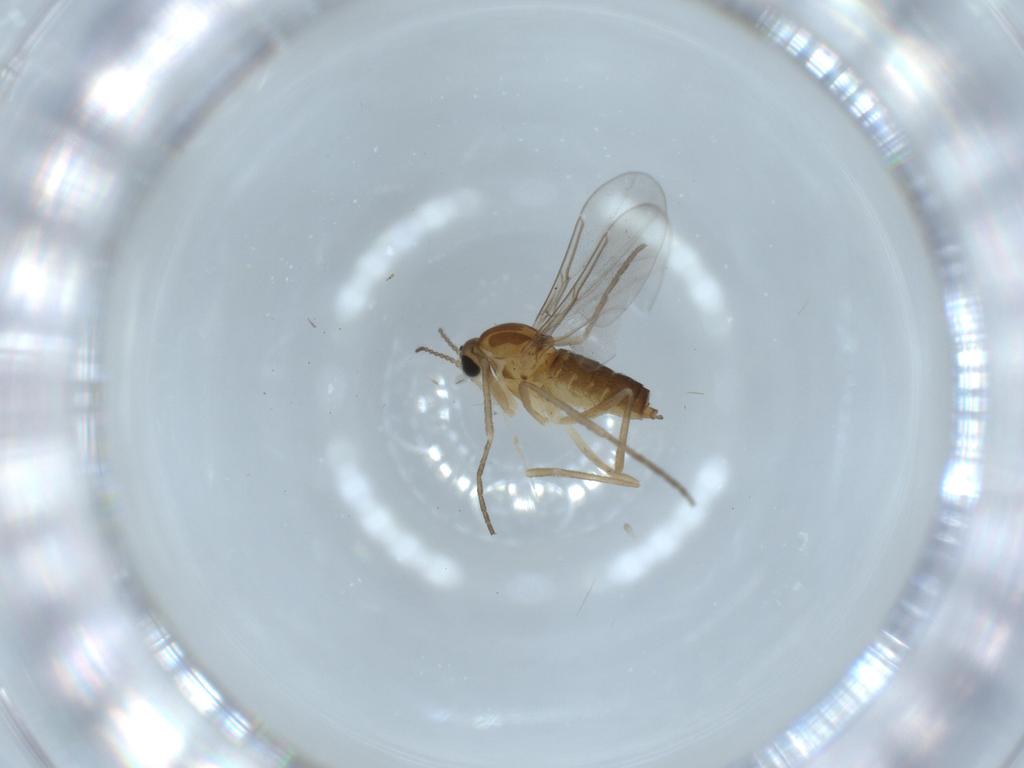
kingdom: Animalia
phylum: Arthropoda
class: Insecta
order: Diptera
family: Cecidomyiidae
